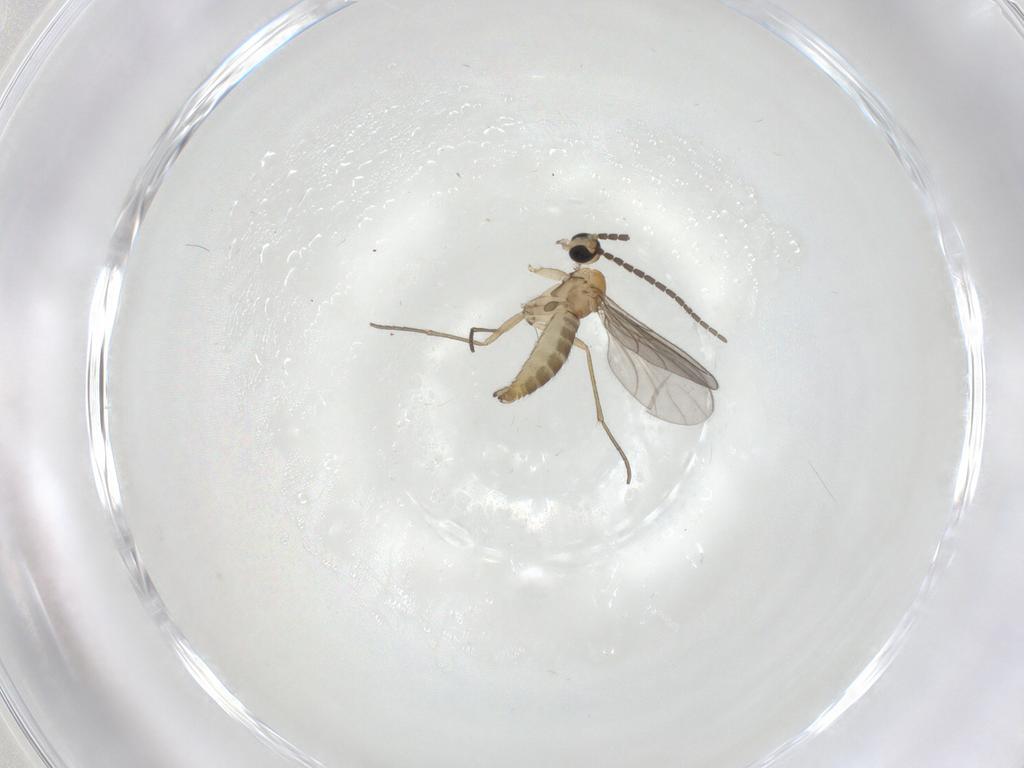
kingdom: Animalia
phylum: Arthropoda
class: Insecta
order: Diptera
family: Sciaridae
